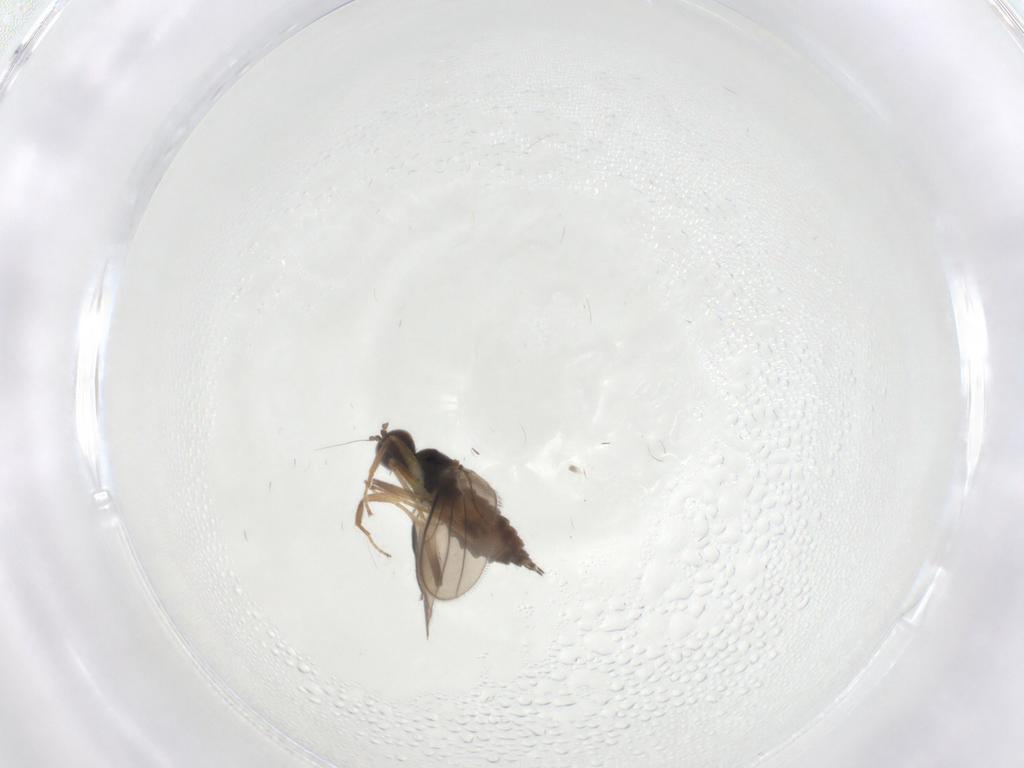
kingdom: Animalia
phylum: Arthropoda
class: Insecta
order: Diptera
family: Hybotidae
